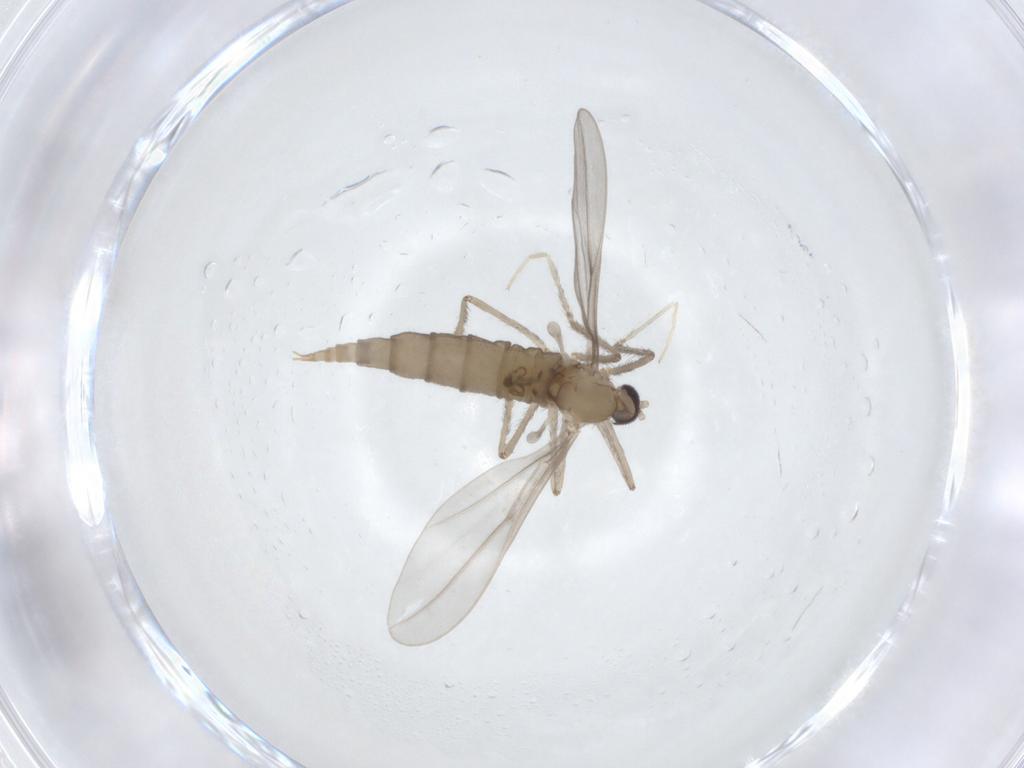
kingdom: Animalia
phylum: Arthropoda
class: Insecta
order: Diptera
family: Cecidomyiidae
